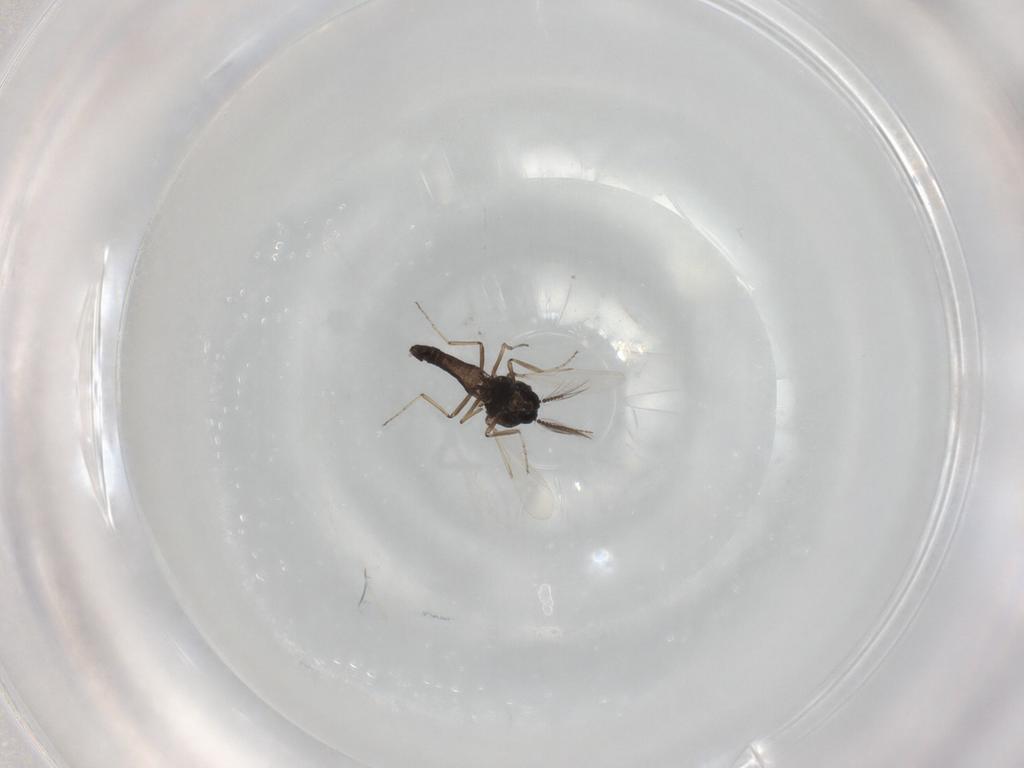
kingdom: Animalia
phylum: Arthropoda
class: Insecta
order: Diptera
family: Ceratopogonidae
